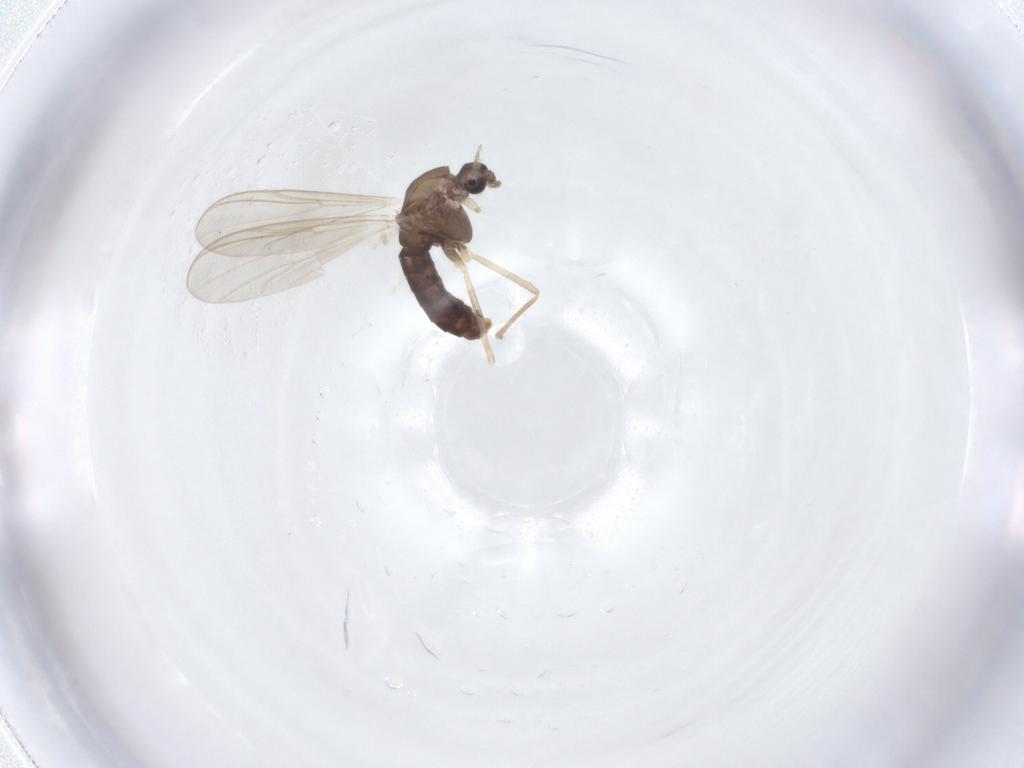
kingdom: Animalia
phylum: Arthropoda
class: Insecta
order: Diptera
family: Chironomidae
